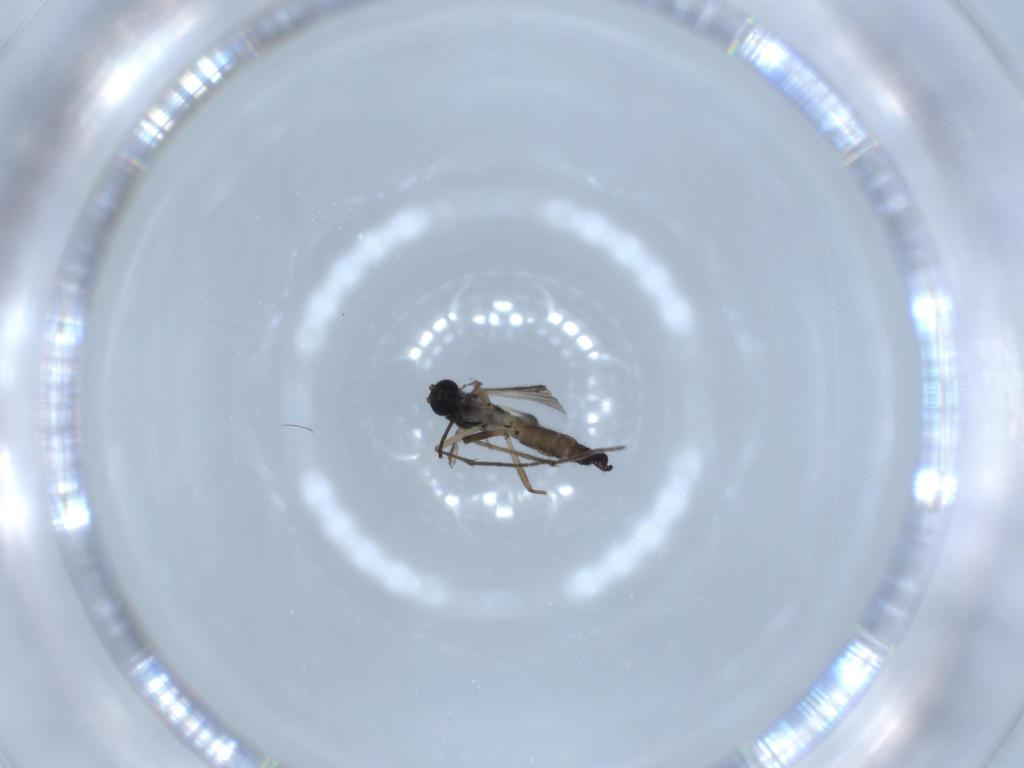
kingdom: Animalia
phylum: Arthropoda
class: Insecta
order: Diptera
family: Sciaridae
